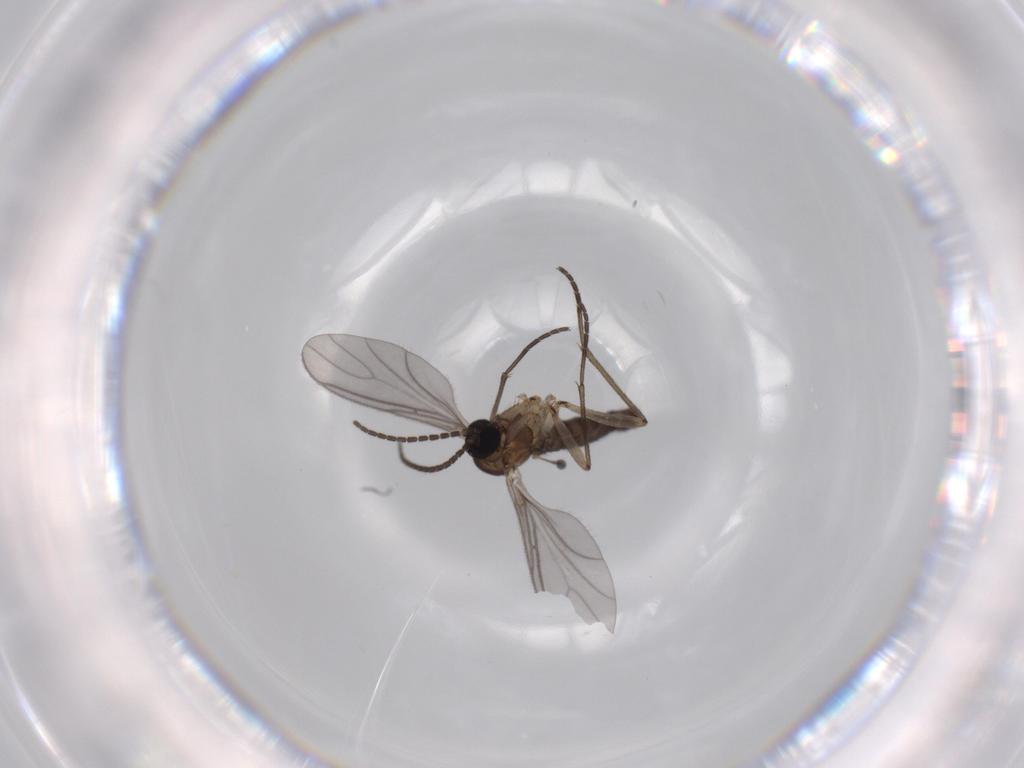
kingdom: Animalia
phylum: Arthropoda
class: Insecta
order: Diptera
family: Sciaridae
